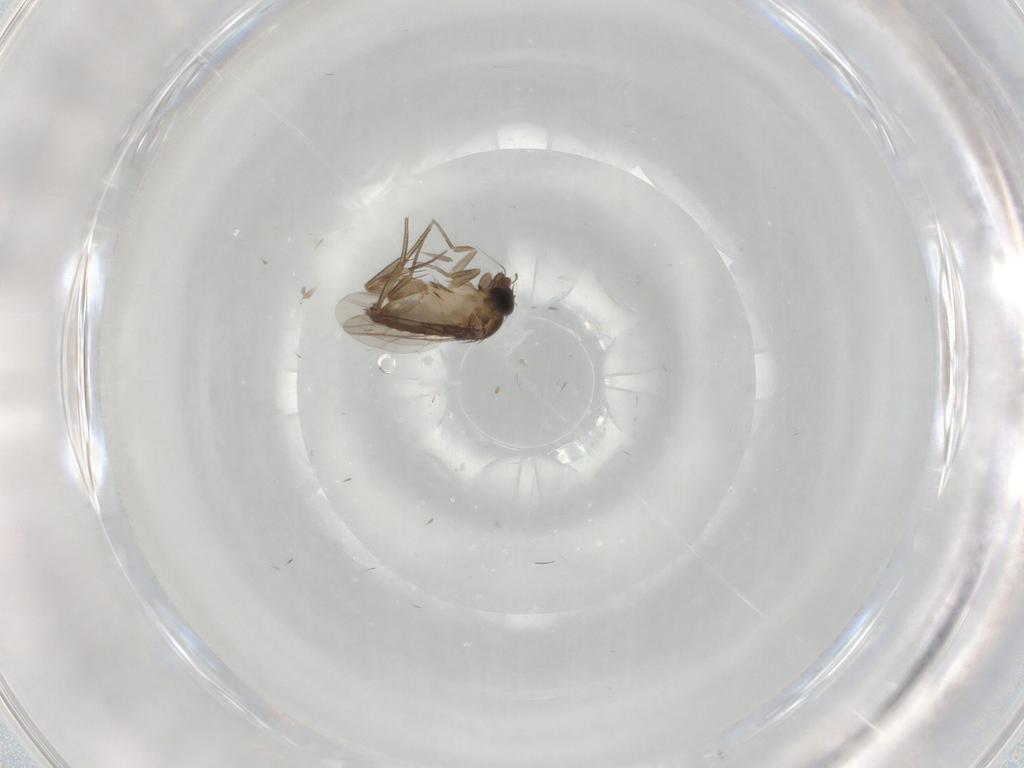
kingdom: Animalia
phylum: Arthropoda
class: Insecta
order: Diptera
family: Phoridae
